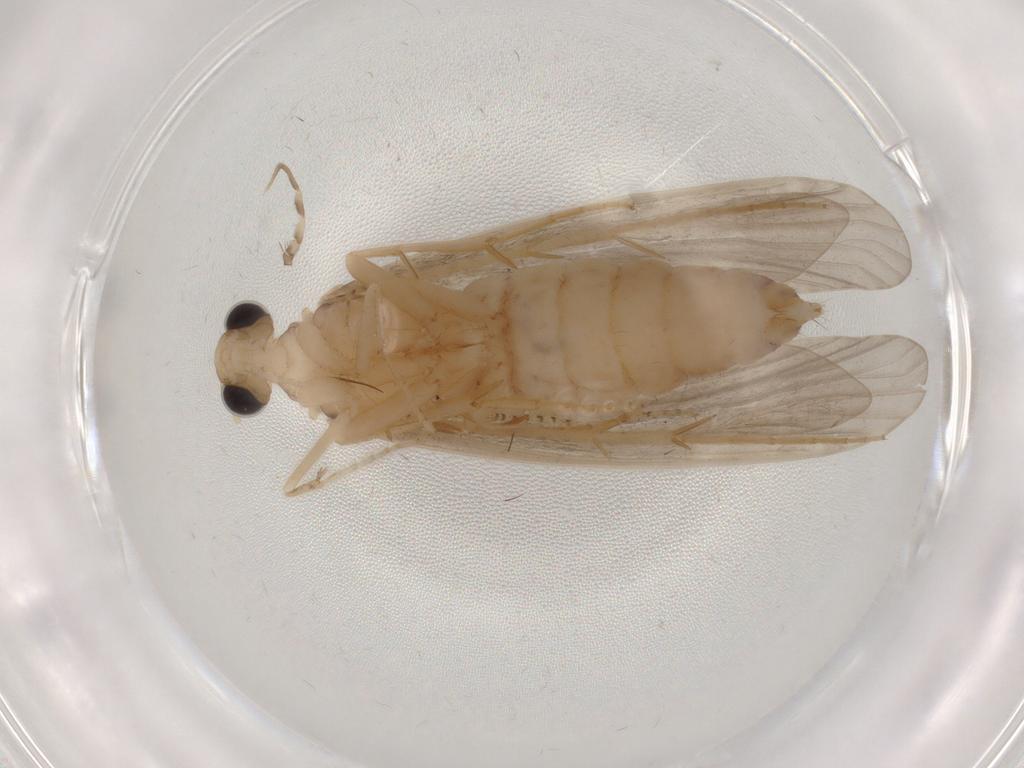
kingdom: Animalia
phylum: Arthropoda
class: Insecta
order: Trichoptera
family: Ecnomidae
